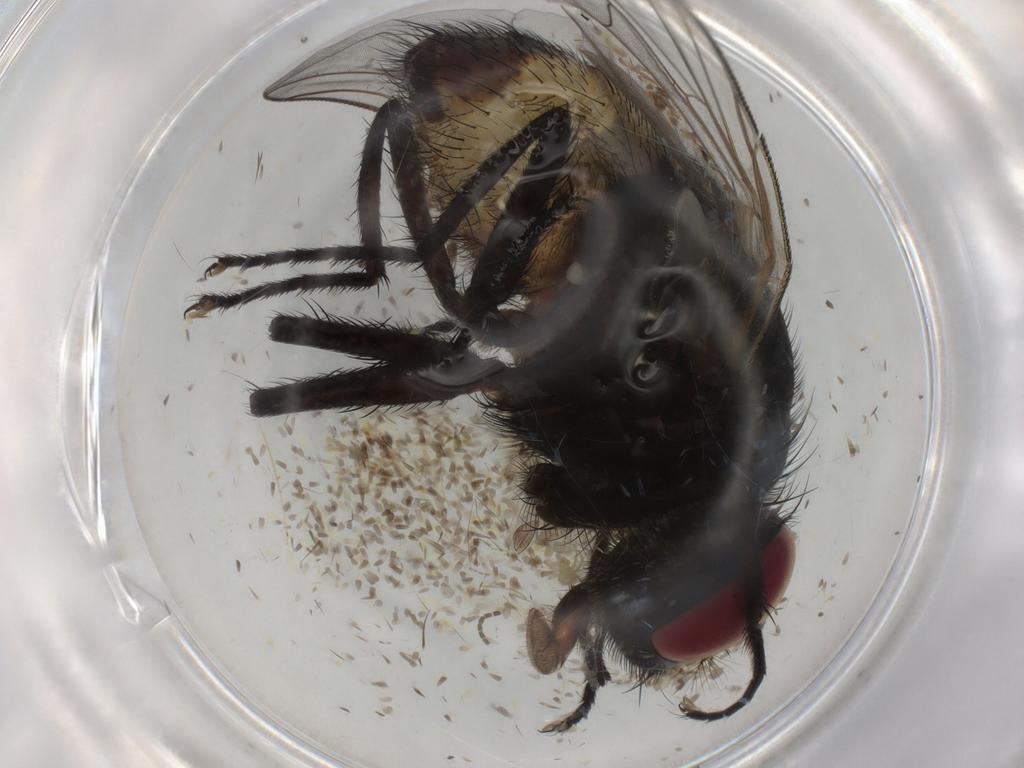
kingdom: Animalia
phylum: Arthropoda
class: Insecta
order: Diptera
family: Muscidae
